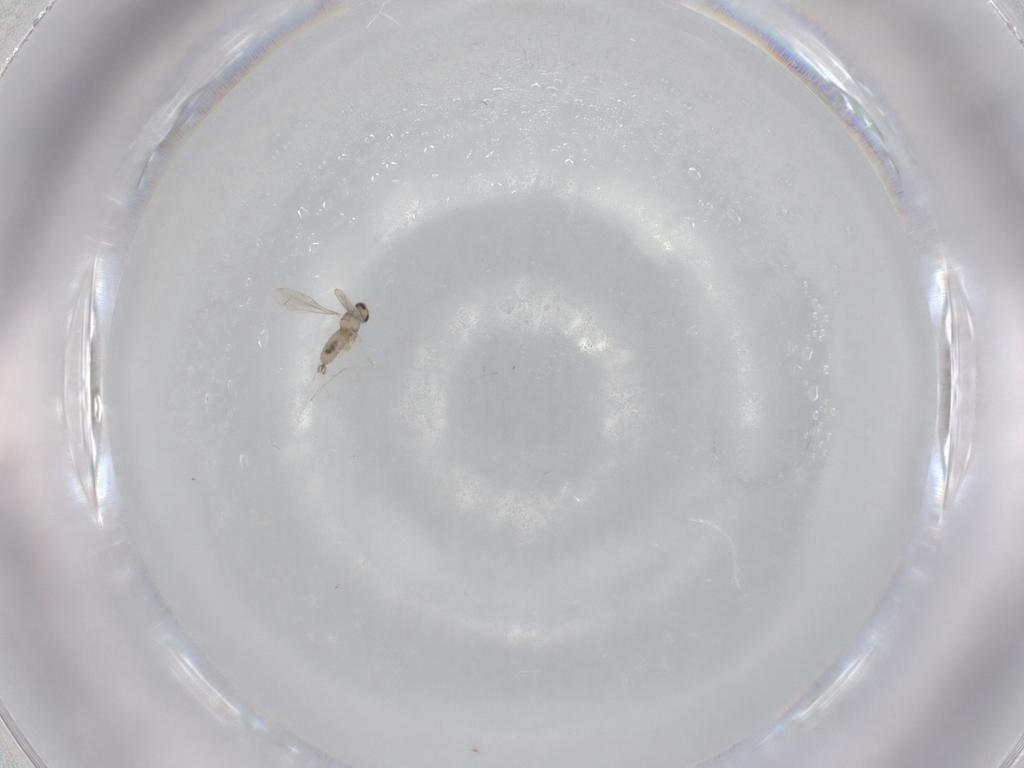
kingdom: Animalia
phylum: Arthropoda
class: Insecta
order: Diptera
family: Cecidomyiidae
